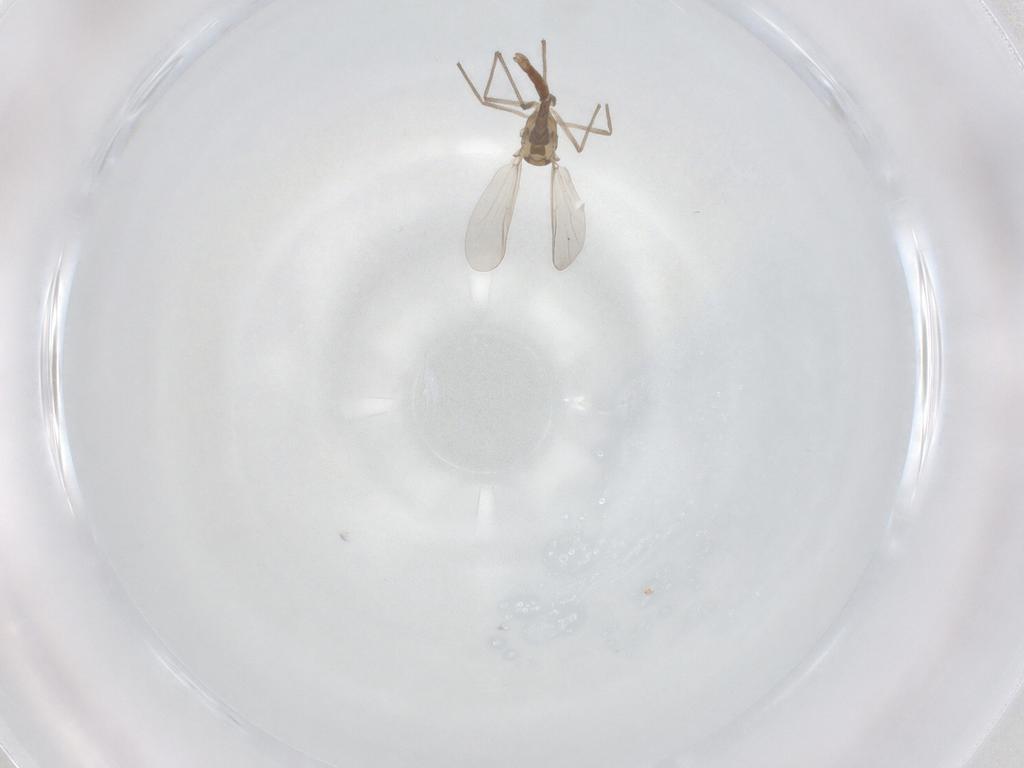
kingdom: Animalia
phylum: Arthropoda
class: Insecta
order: Diptera
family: Chironomidae
